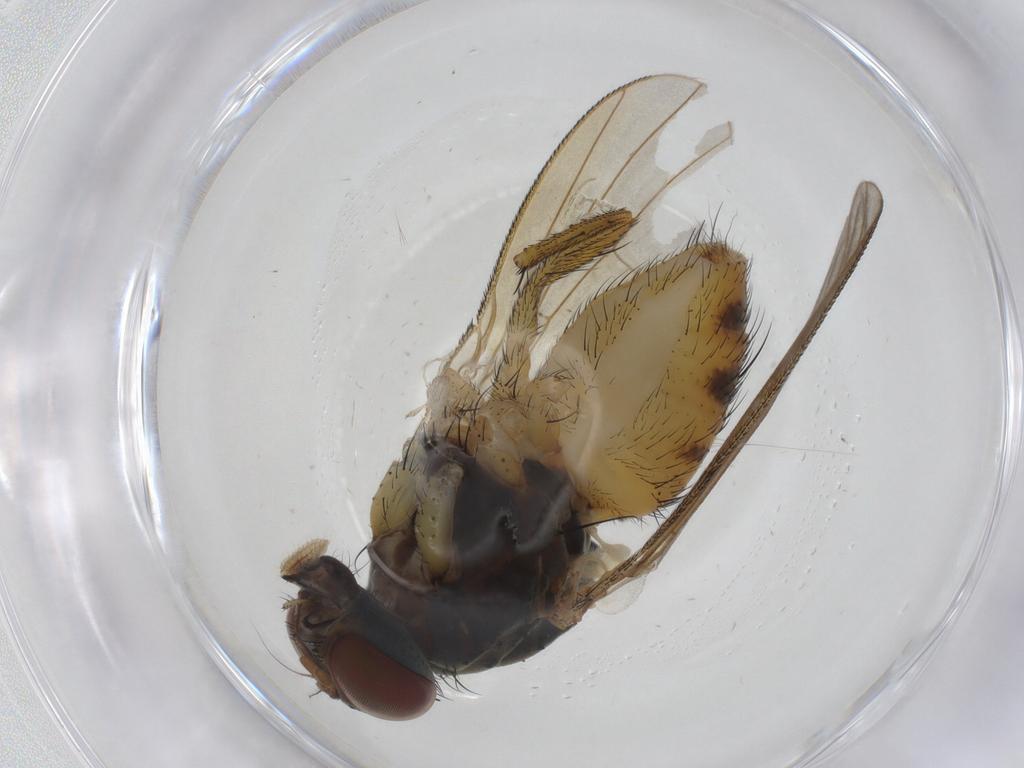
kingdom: Animalia
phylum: Arthropoda
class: Insecta
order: Diptera
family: Muscidae
